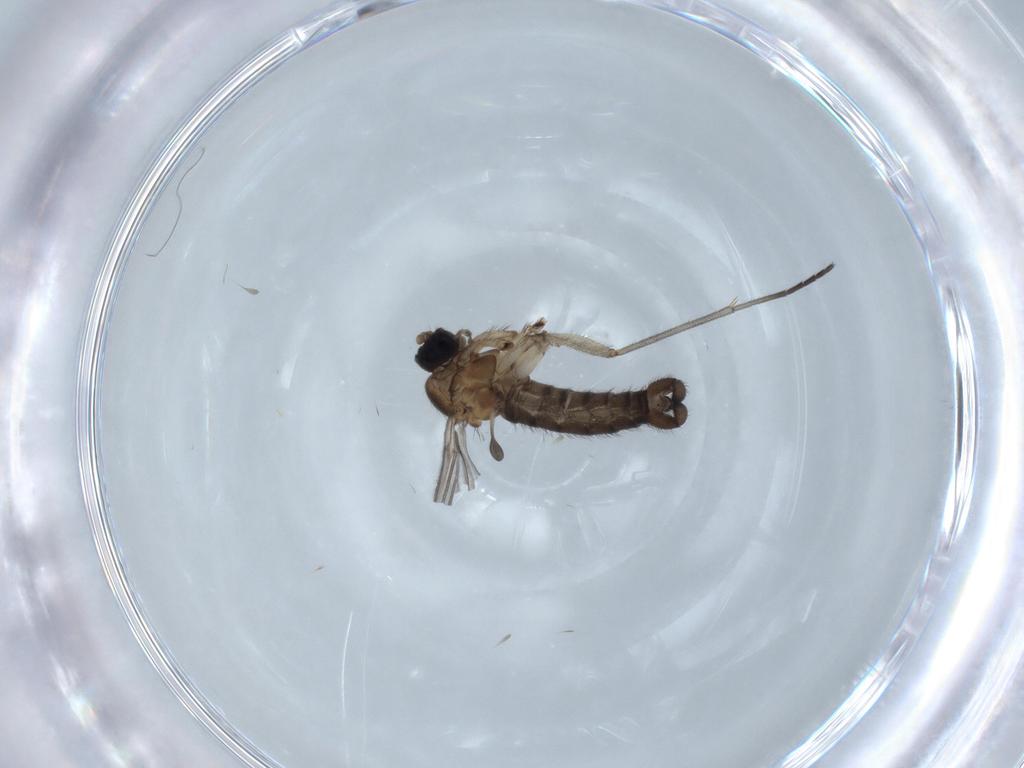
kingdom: Animalia
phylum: Arthropoda
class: Insecta
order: Diptera
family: Sciaridae
